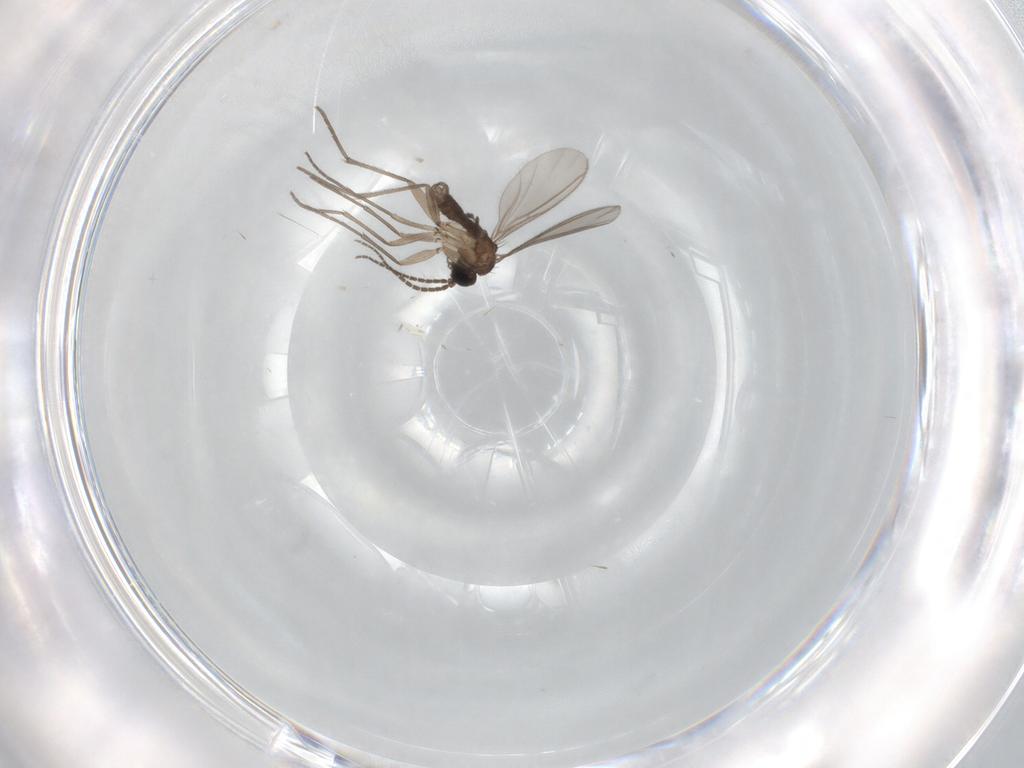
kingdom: Animalia
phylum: Arthropoda
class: Insecta
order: Diptera
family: Sciaridae
